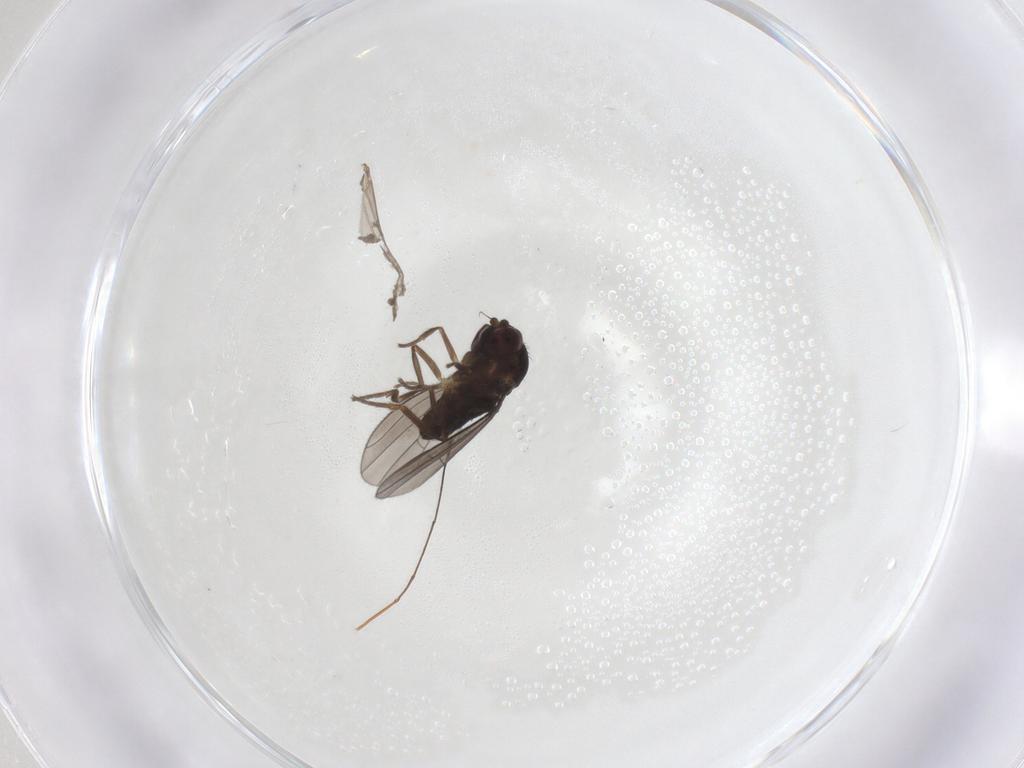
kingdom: Animalia
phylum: Arthropoda
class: Insecta
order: Diptera
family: Dolichopodidae
